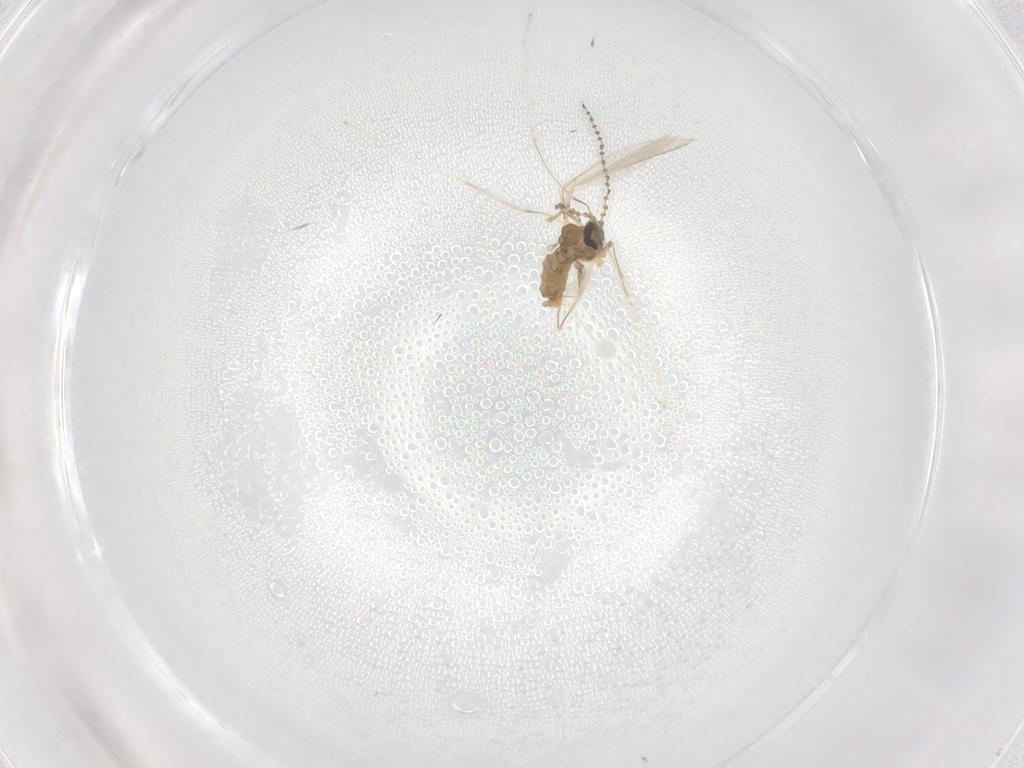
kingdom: Animalia
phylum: Arthropoda
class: Insecta
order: Diptera
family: Cecidomyiidae
